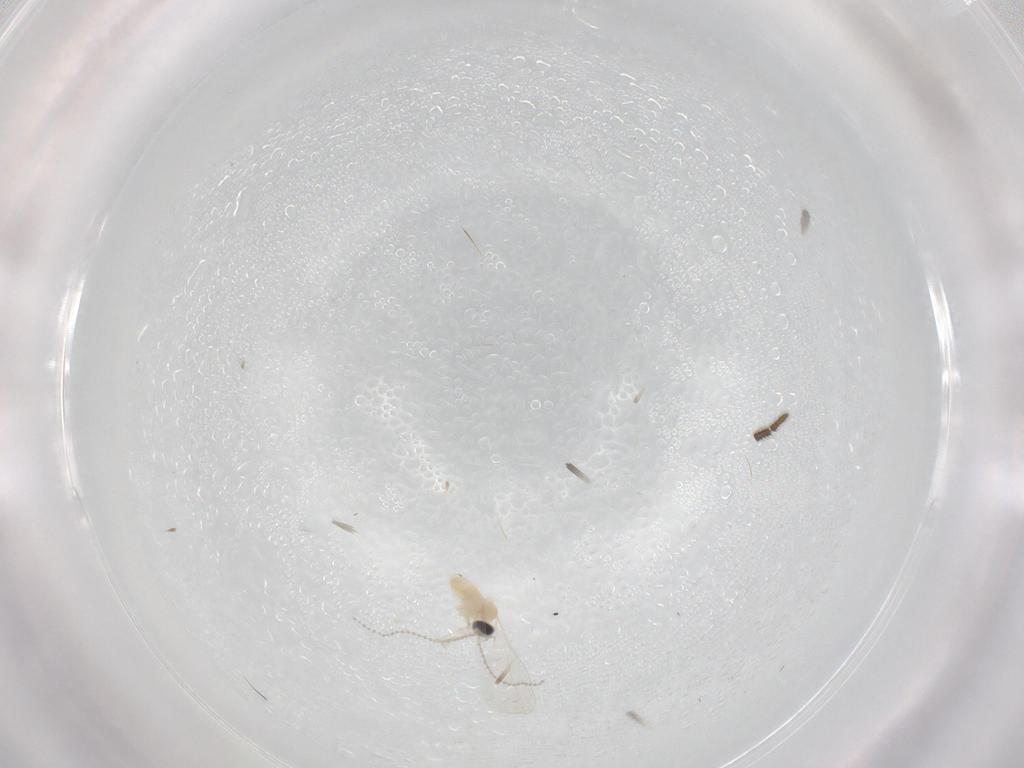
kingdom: Animalia
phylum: Arthropoda
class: Insecta
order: Diptera
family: Cecidomyiidae
